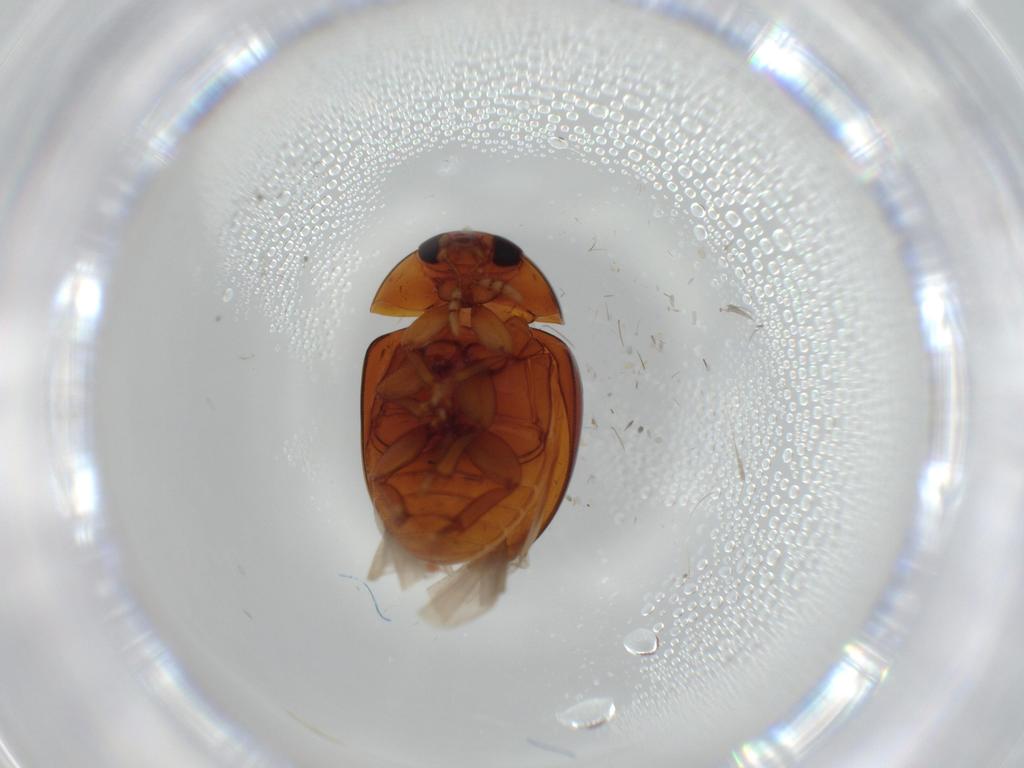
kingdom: Animalia
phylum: Arthropoda
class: Insecta
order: Coleoptera
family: Phalacridae
